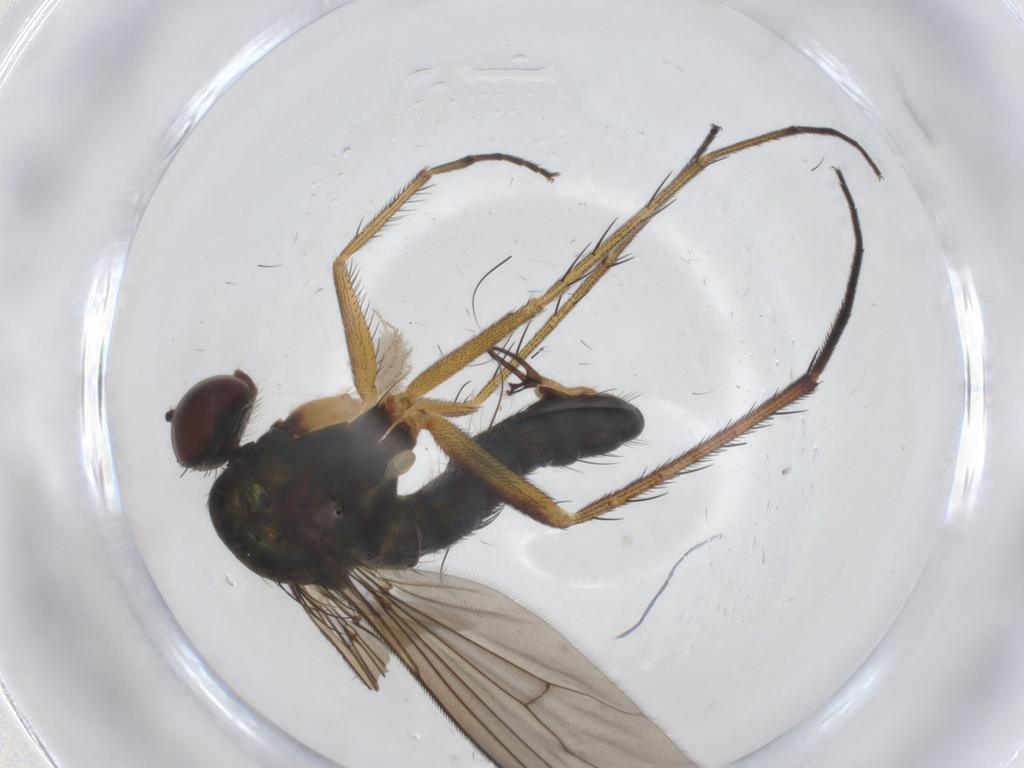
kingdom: Animalia
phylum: Arthropoda
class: Insecta
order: Diptera
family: Dolichopodidae
